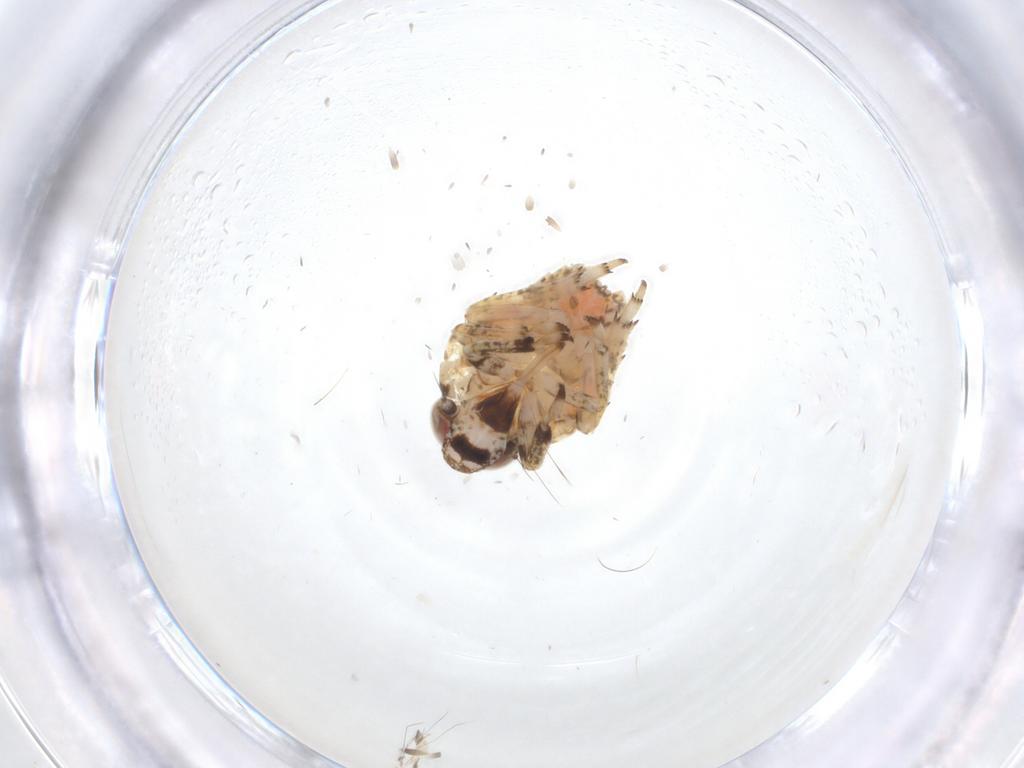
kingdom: Animalia
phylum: Arthropoda
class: Insecta
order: Hemiptera
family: Issidae
